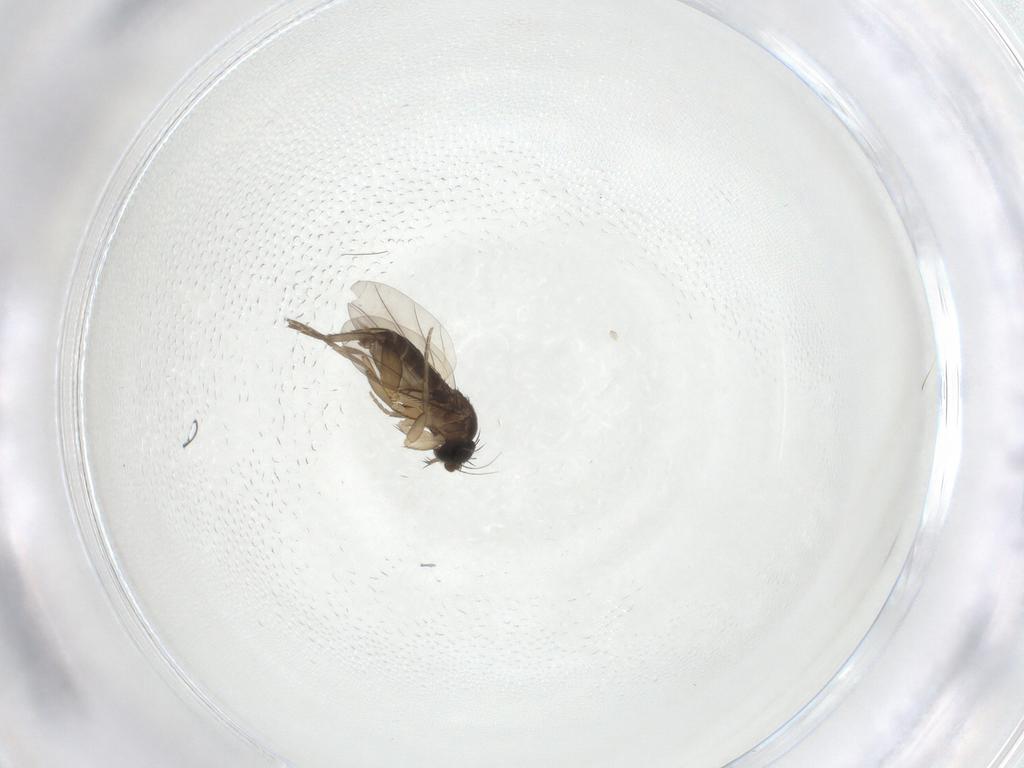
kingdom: Animalia
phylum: Arthropoda
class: Insecta
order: Diptera
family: Phoridae
